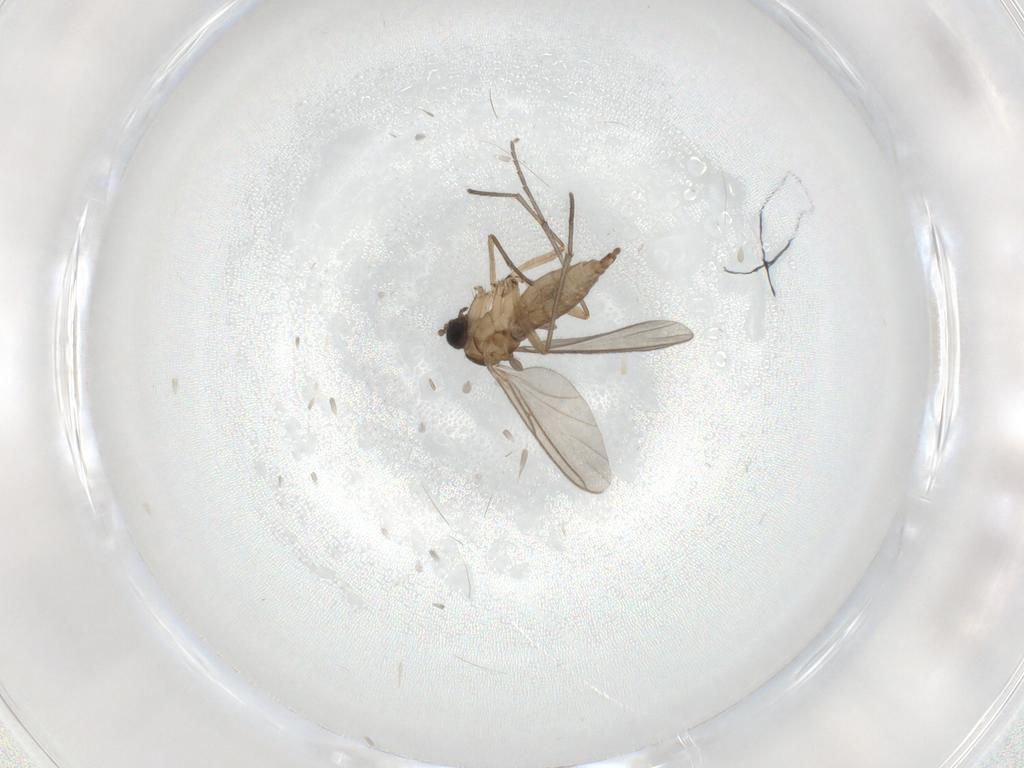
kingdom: Animalia
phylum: Arthropoda
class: Insecta
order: Diptera
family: Sciaridae
